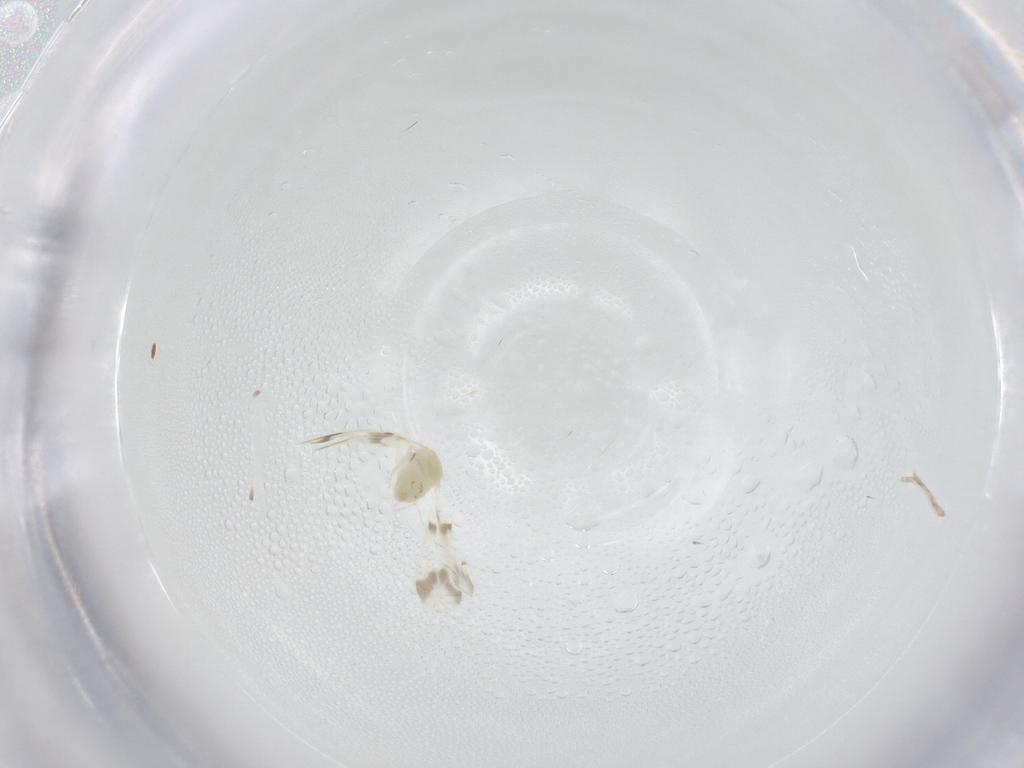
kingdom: Animalia
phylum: Arthropoda
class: Insecta
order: Hemiptera
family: Aleyrodidae
